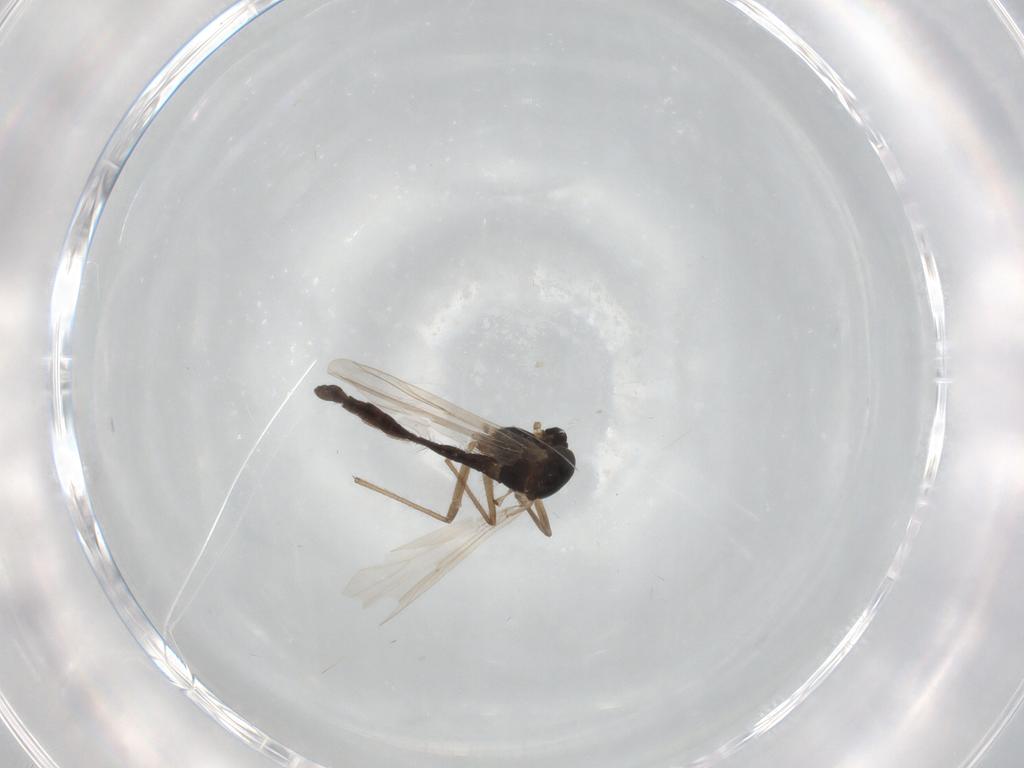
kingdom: Animalia
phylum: Arthropoda
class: Insecta
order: Diptera
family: Chironomidae
